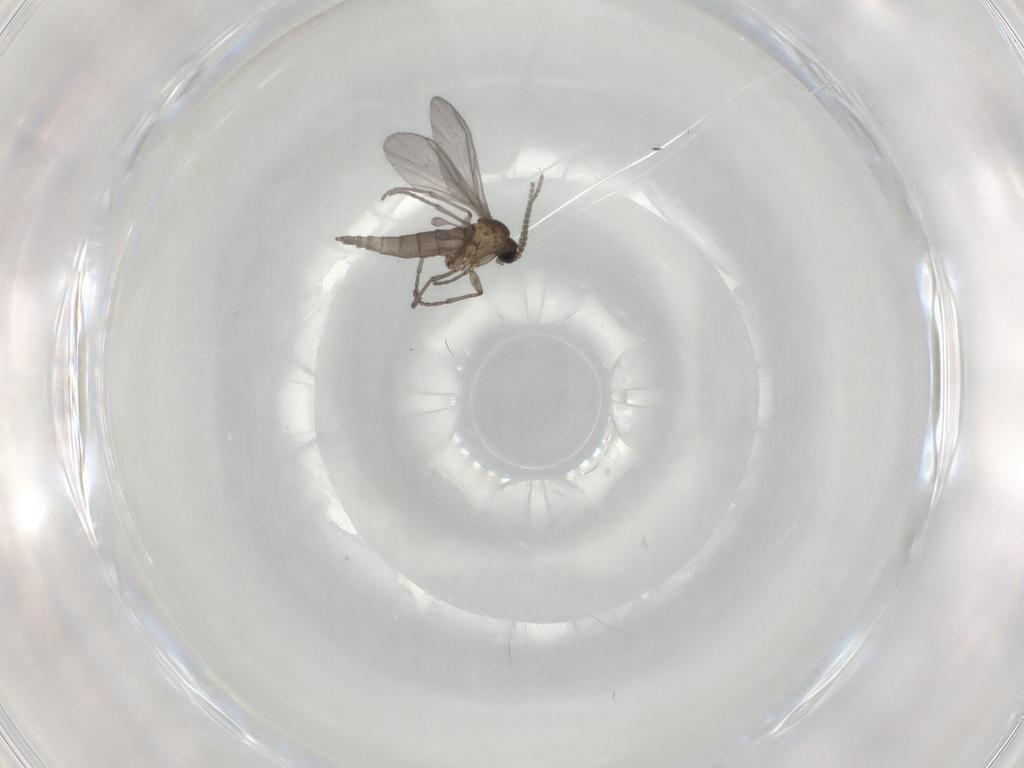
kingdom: Animalia
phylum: Arthropoda
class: Insecta
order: Diptera
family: Sciaridae
